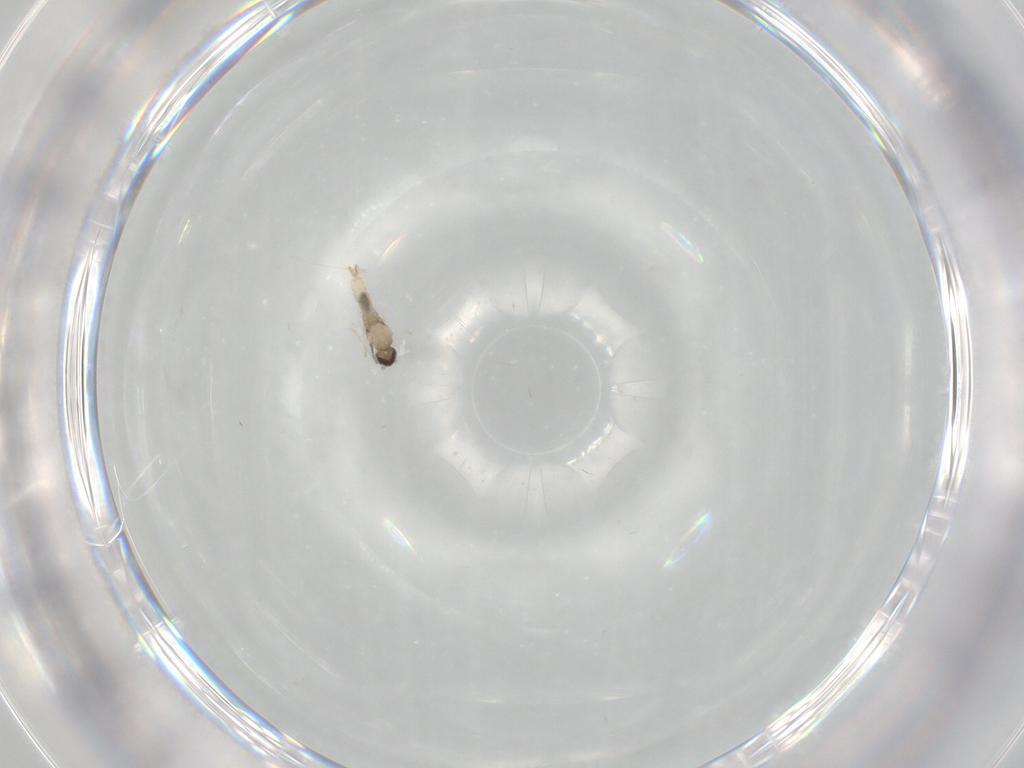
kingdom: Animalia
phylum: Arthropoda
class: Insecta
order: Diptera
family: Cecidomyiidae
